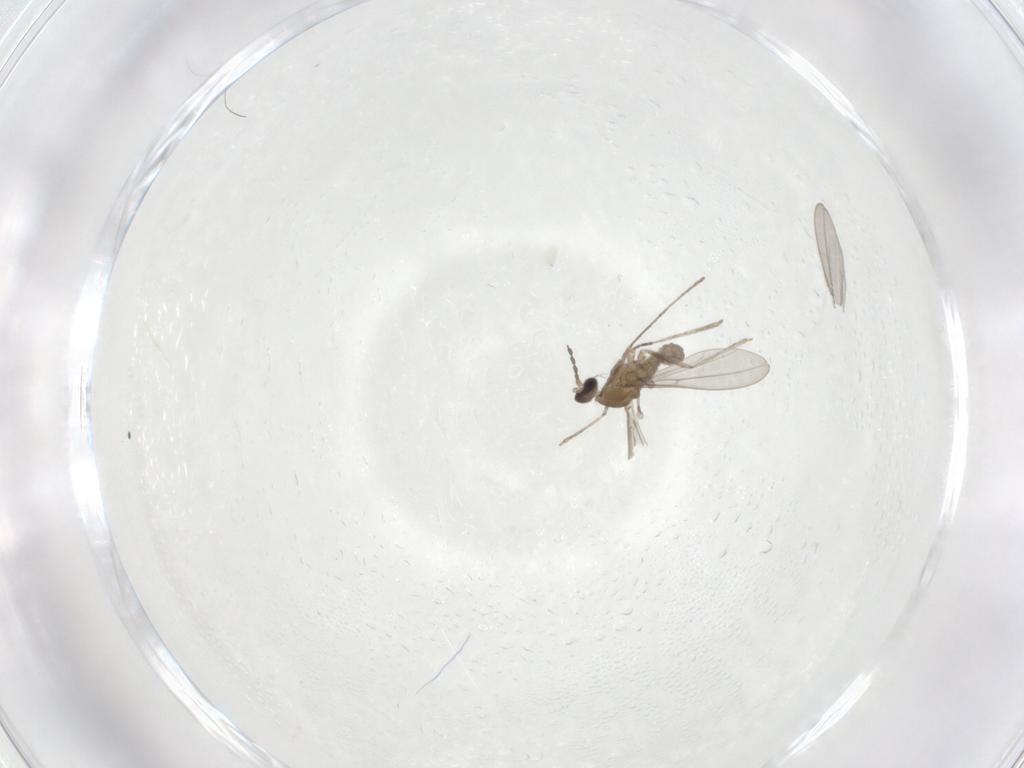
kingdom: Animalia
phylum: Arthropoda
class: Insecta
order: Diptera
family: Cecidomyiidae
